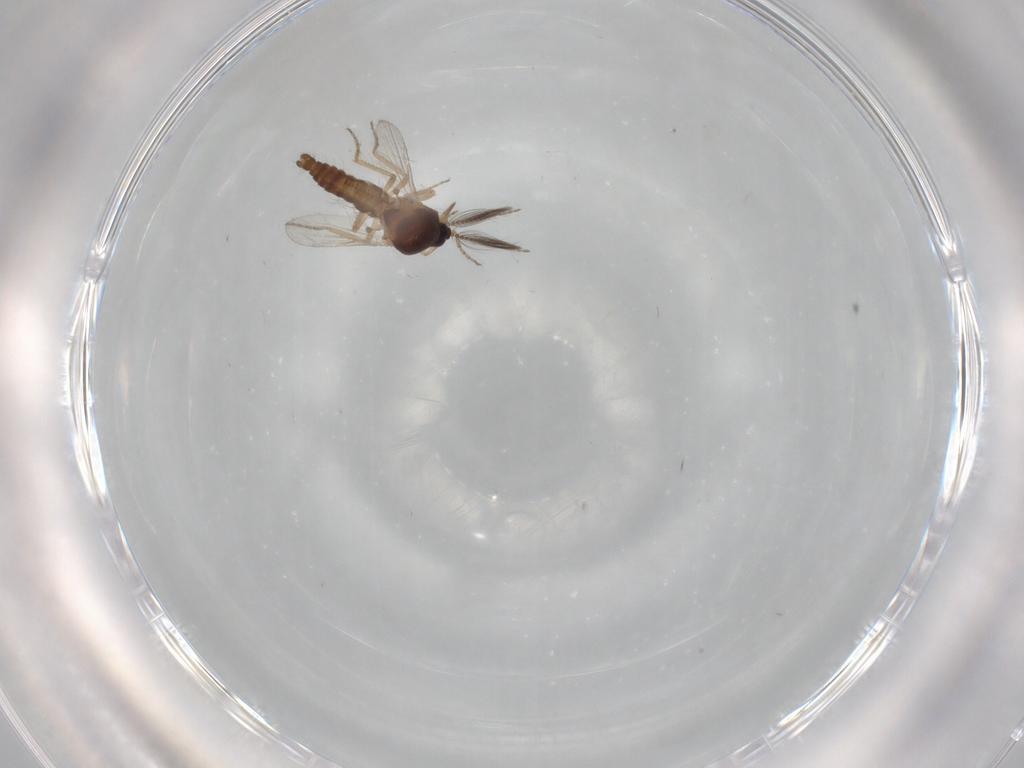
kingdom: Animalia
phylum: Arthropoda
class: Insecta
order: Diptera
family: Ceratopogonidae
